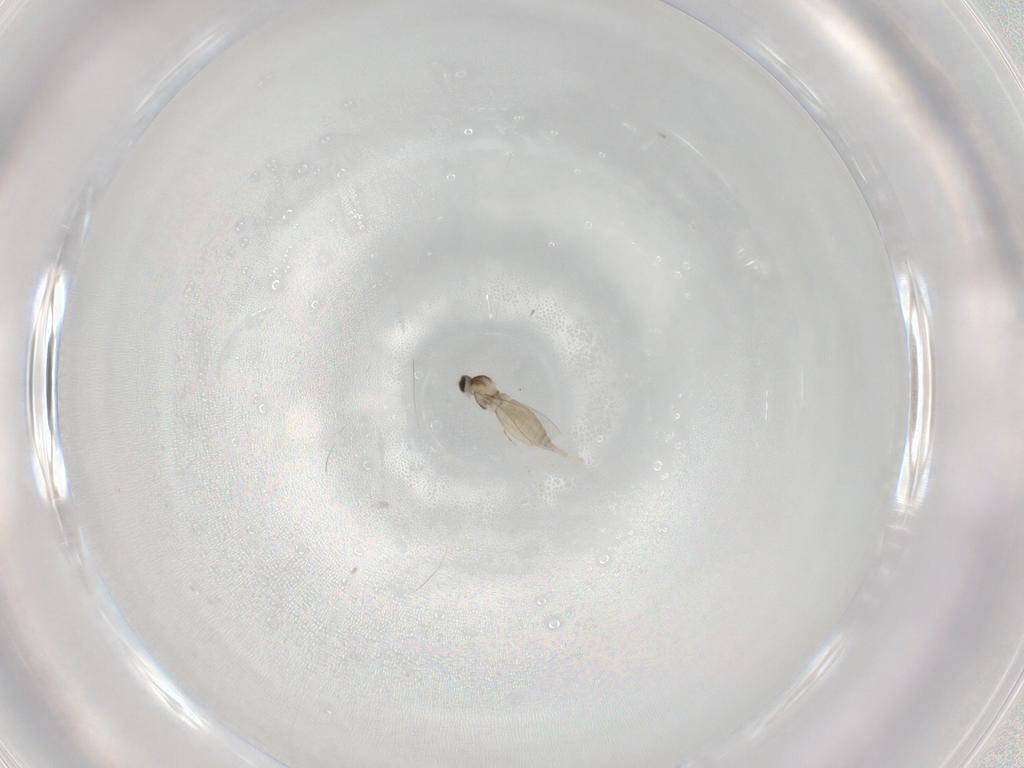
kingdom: Animalia
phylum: Arthropoda
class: Insecta
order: Diptera
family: Cecidomyiidae
